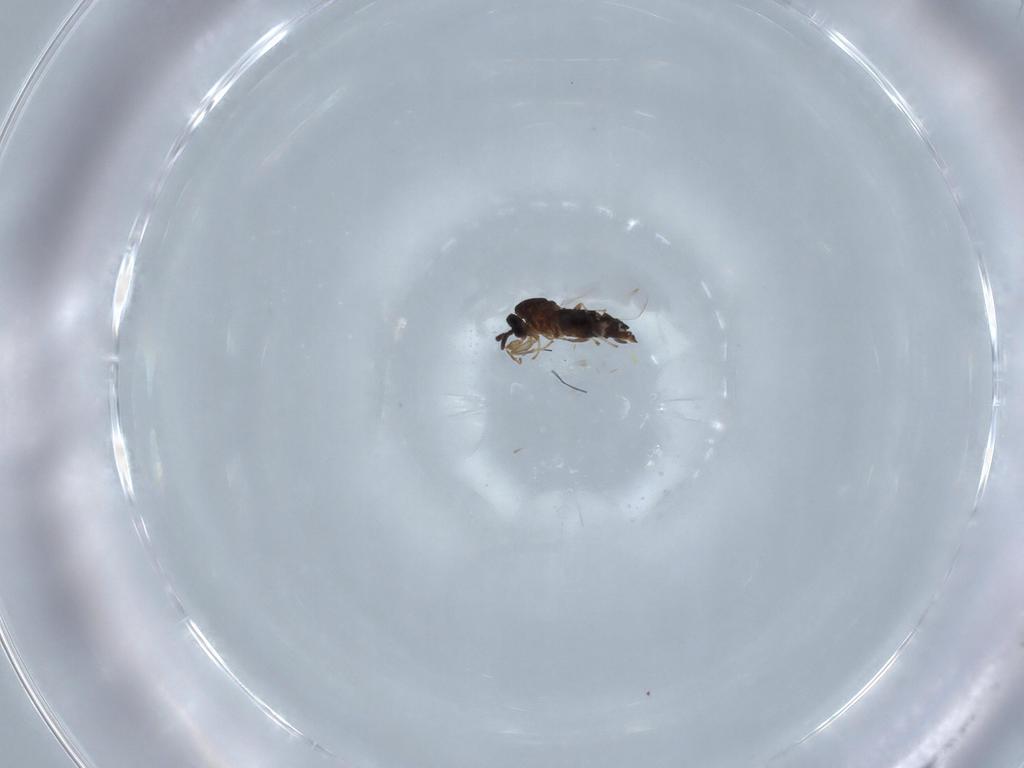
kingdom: Animalia
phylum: Arthropoda
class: Insecta
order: Diptera
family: Scatopsidae
